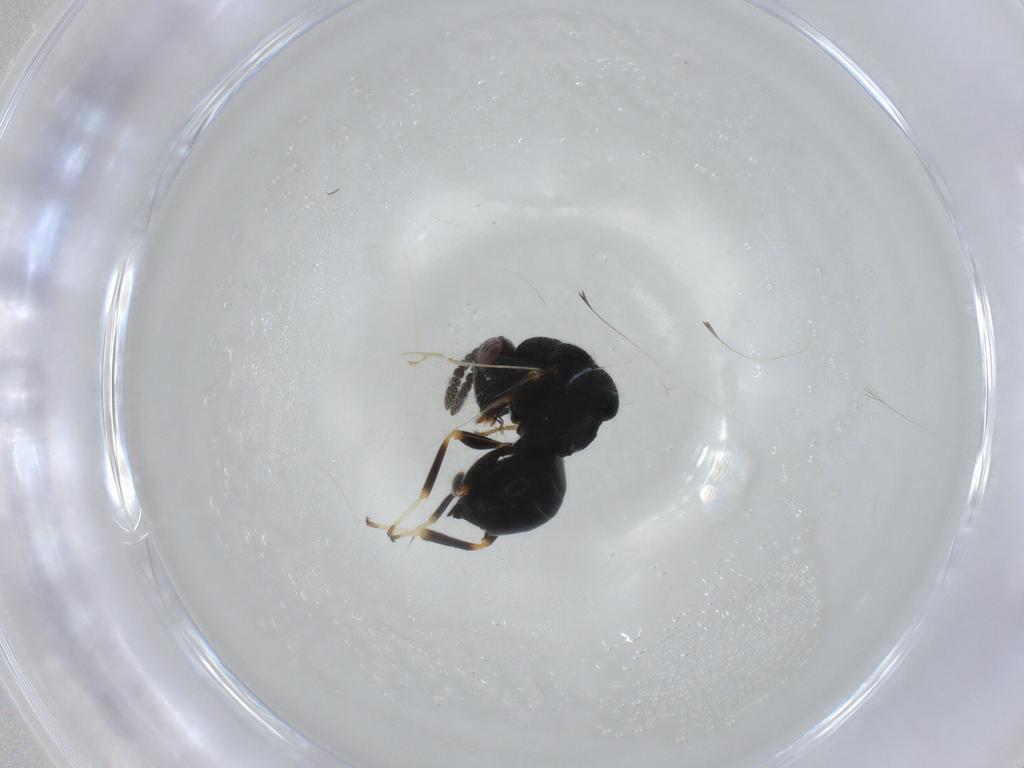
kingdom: Animalia
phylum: Arthropoda
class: Insecta
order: Hymenoptera
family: Eurytomidae
